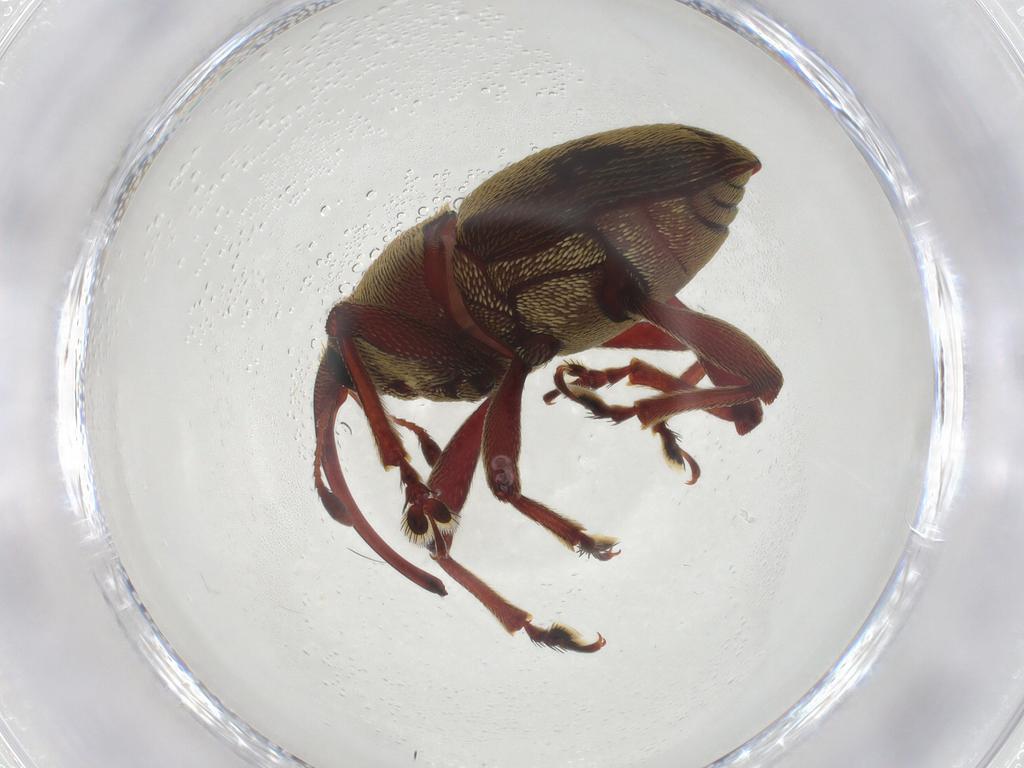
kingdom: Animalia
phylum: Arthropoda
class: Insecta
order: Coleoptera
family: Curculionidae
